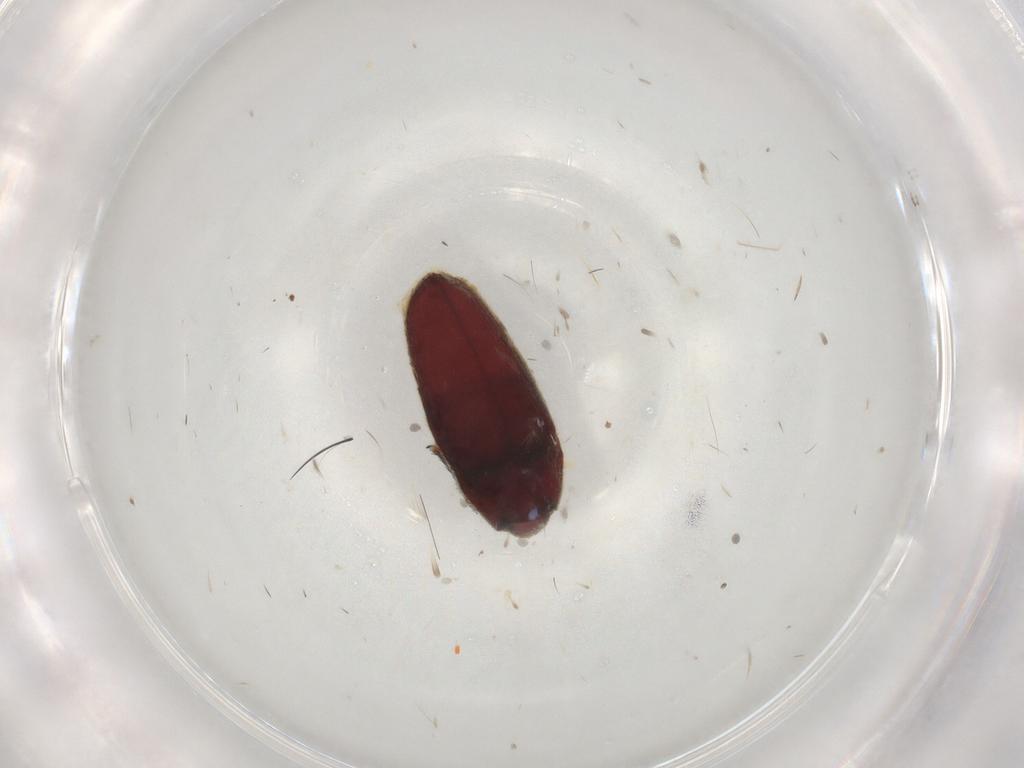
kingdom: Animalia
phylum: Arthropoda
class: Insecta
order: Coleoptera
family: Throscidae
